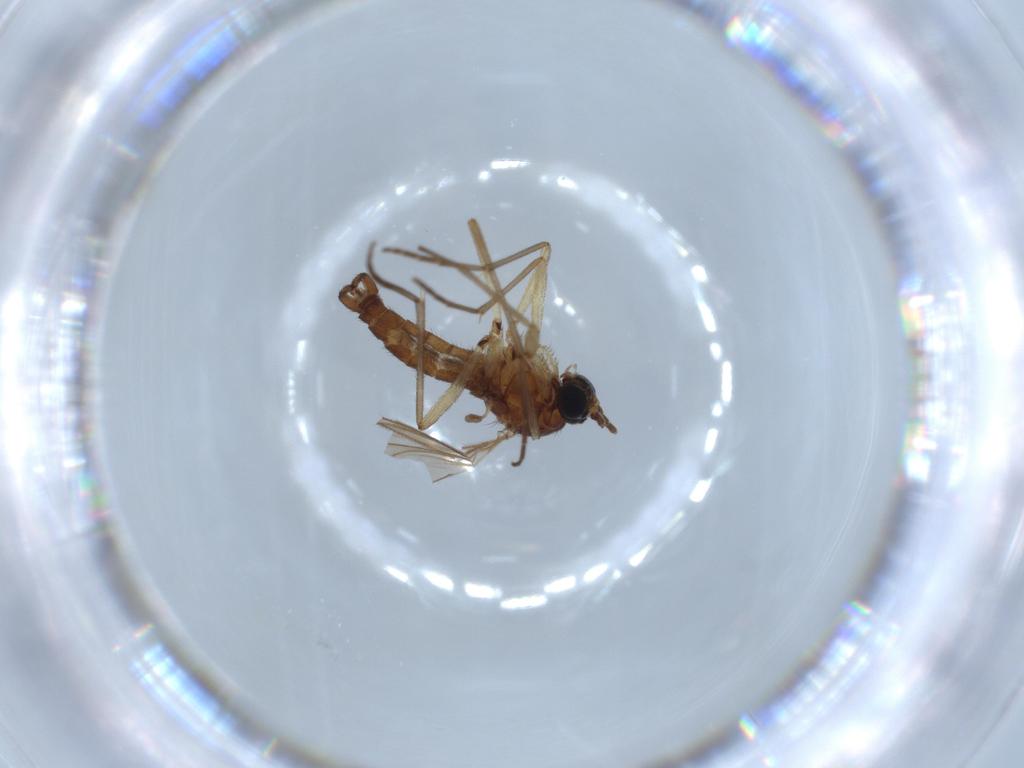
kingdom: Animalia
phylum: Arthropoda
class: Insecta
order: Diptera
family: Sciaridae
